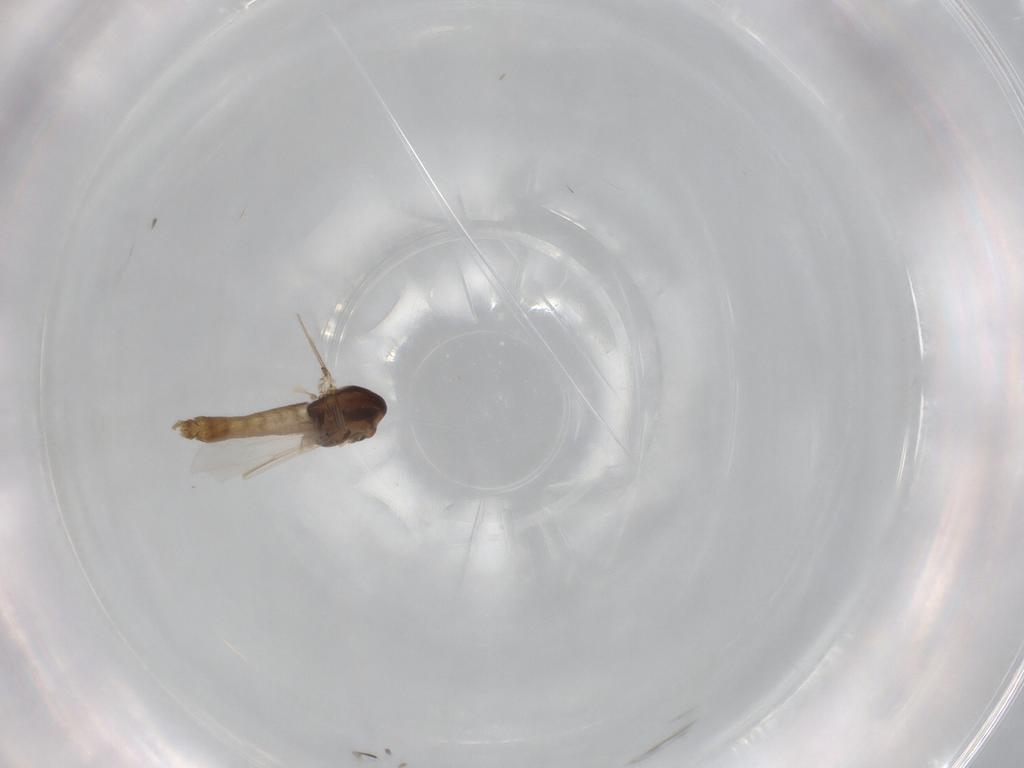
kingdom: Animalia
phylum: Arthropoda
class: Insecta
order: Diptera
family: Chironomidae
